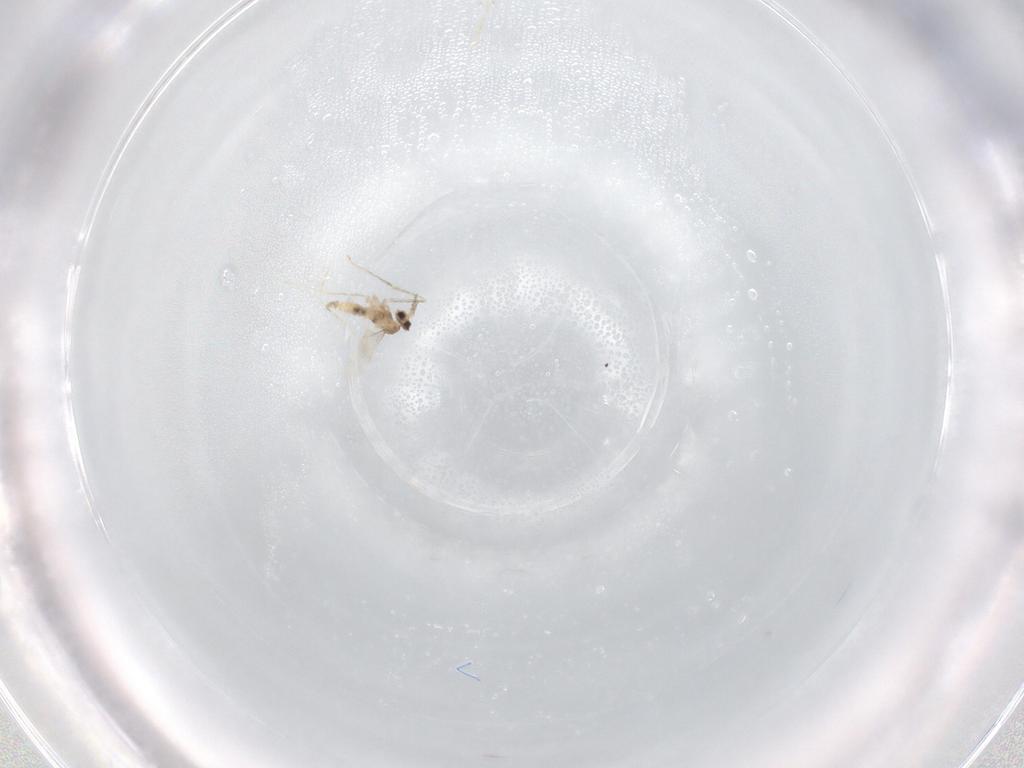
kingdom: Animalia
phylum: Arthropoda
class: Insecta
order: Diptera
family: Cecidomyiidae
